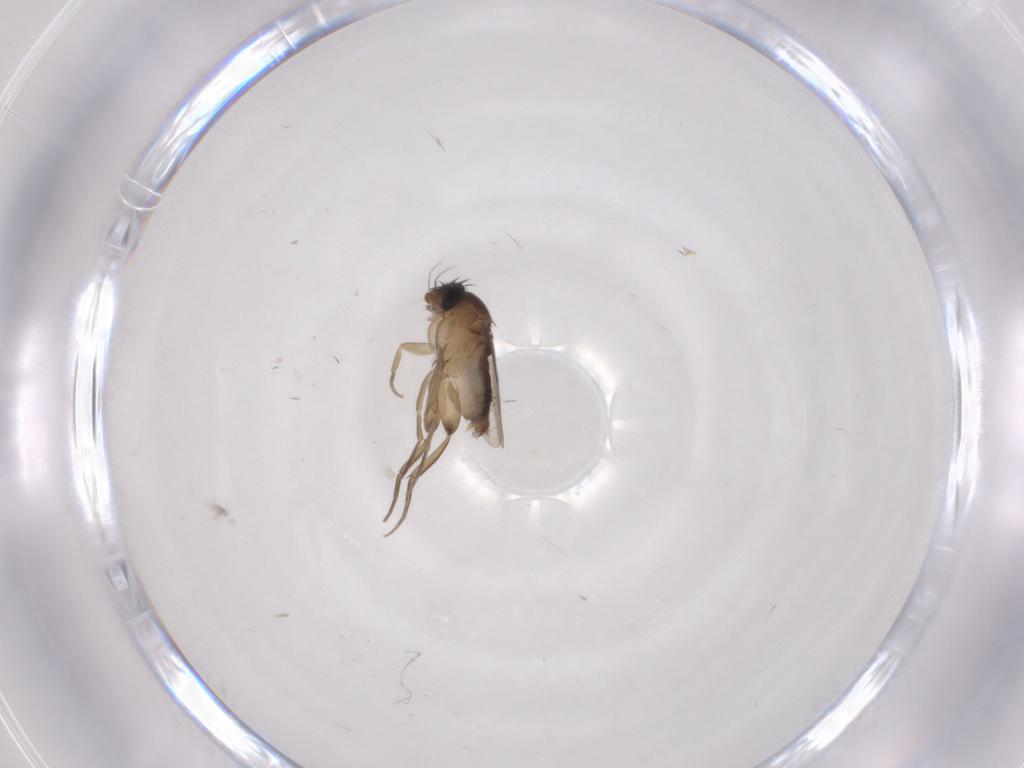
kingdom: Animalia
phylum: Arthropoda
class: Insecta
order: Diptera
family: Phoridae
